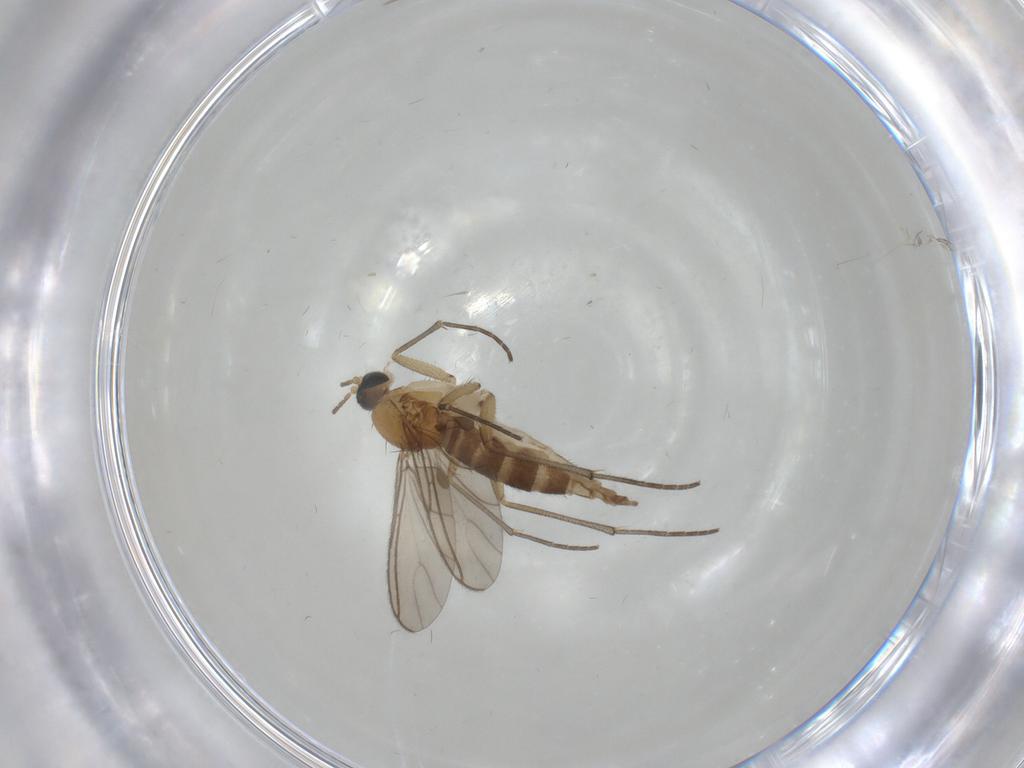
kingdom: Animalia
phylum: Arthropoda
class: Insecta
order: Diptera
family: Sciaridae
